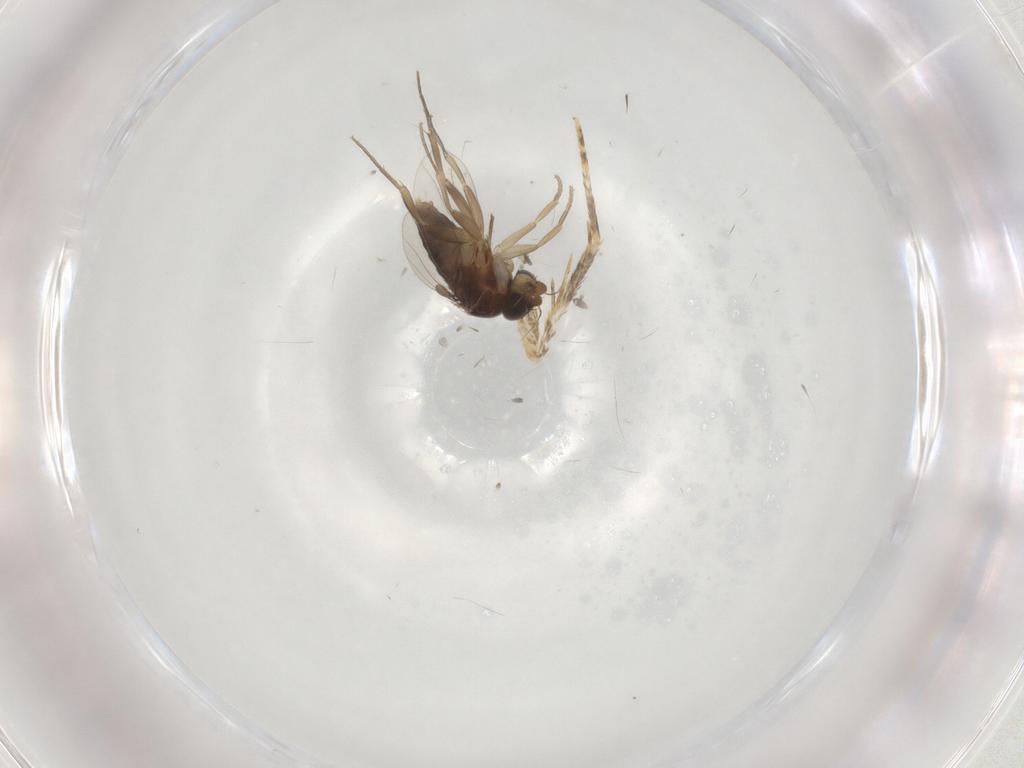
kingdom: Animalia
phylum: Arthropoda
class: Insecta
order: Diptera
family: Phoridae
